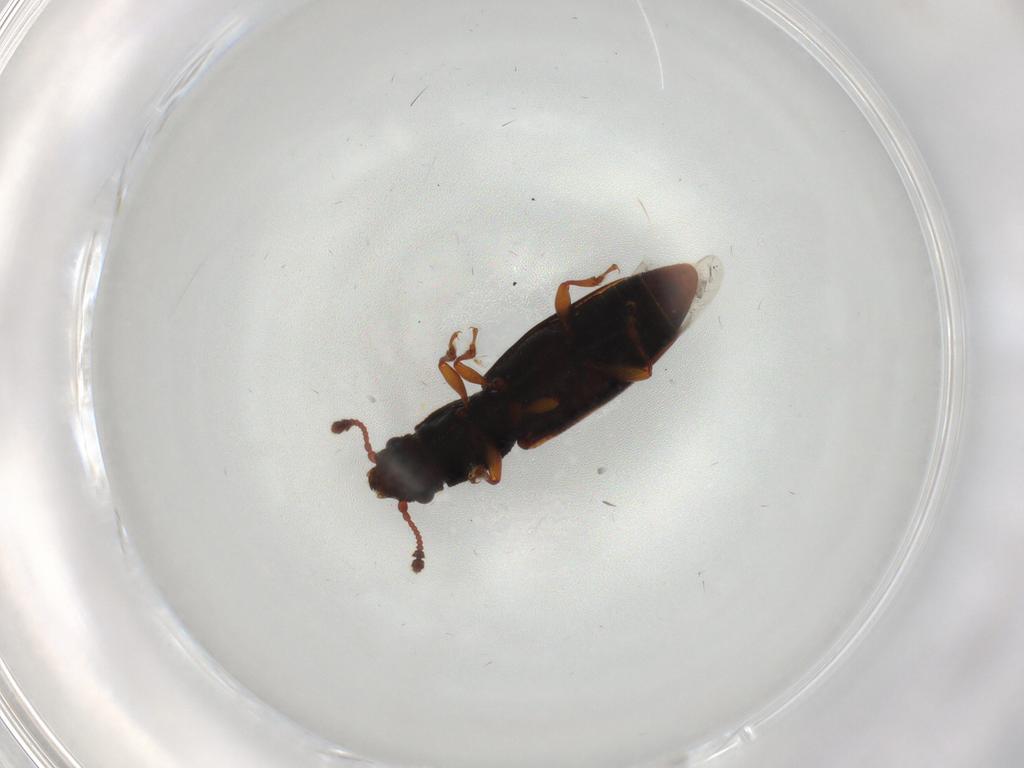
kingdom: Animalia
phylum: Arthropoda
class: Insecta
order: Coleoptera
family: Monotomidae
